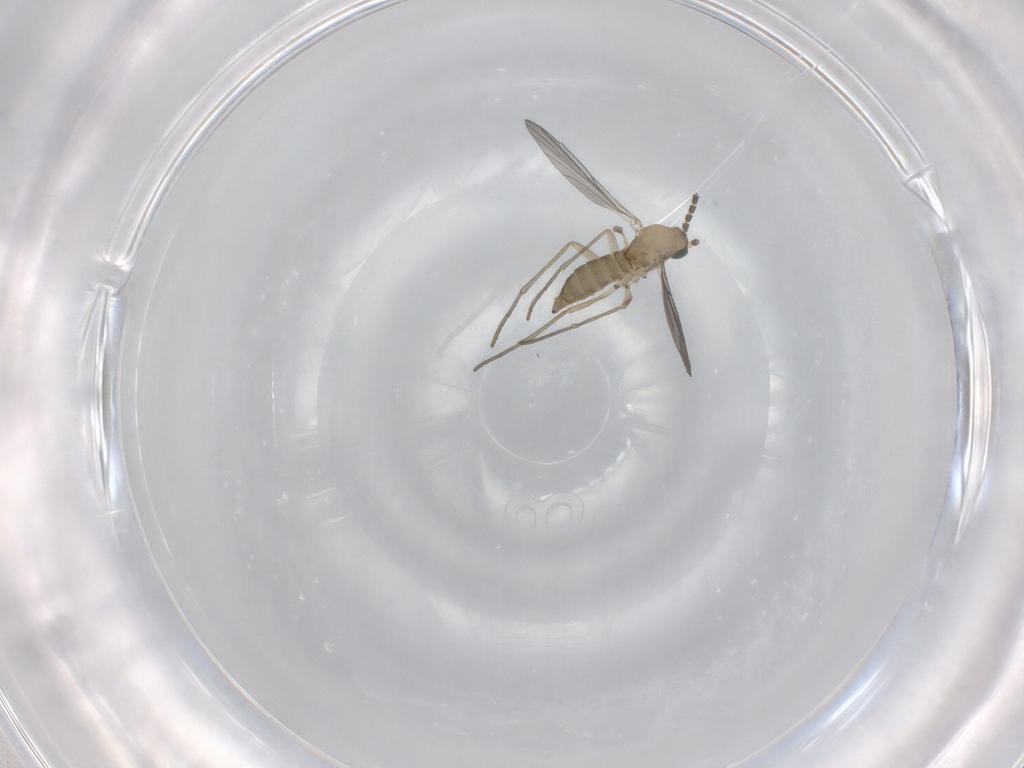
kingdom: Animalia
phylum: Arthropoda
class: Insecta
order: Diptera
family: Sciaridae
